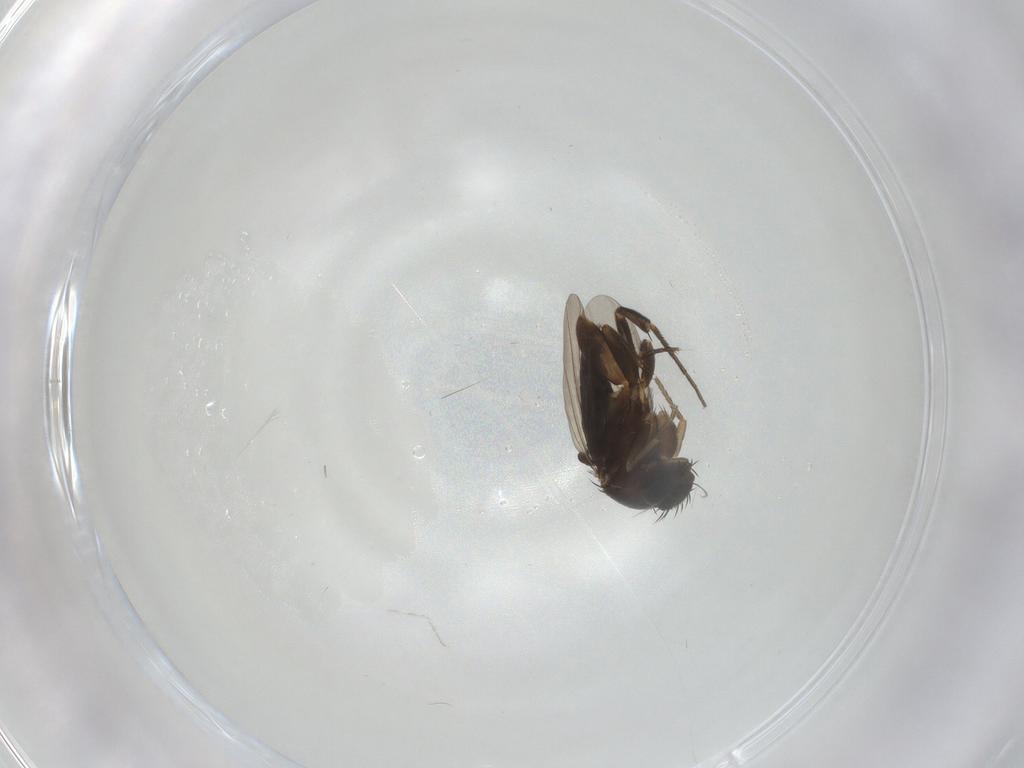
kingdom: Animalia
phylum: Arthropoda
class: Insecta
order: Diptera
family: Phoridae
